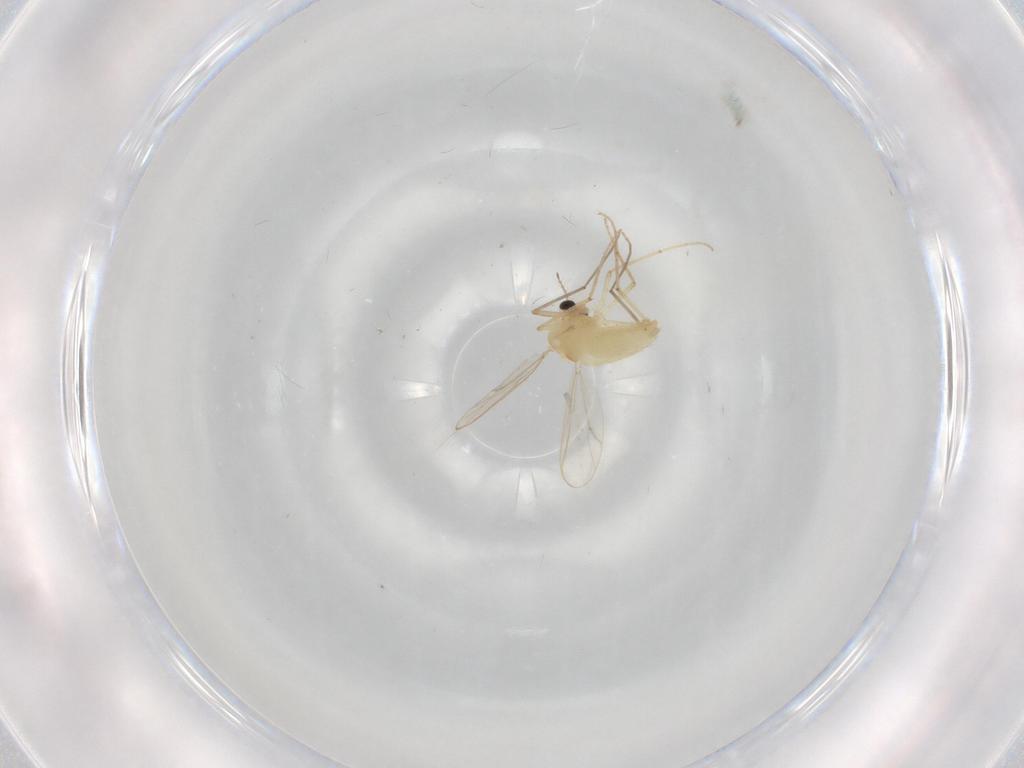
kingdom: Animalia
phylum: Arthropoda
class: Insecta
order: Diptera
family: Chironomidae
